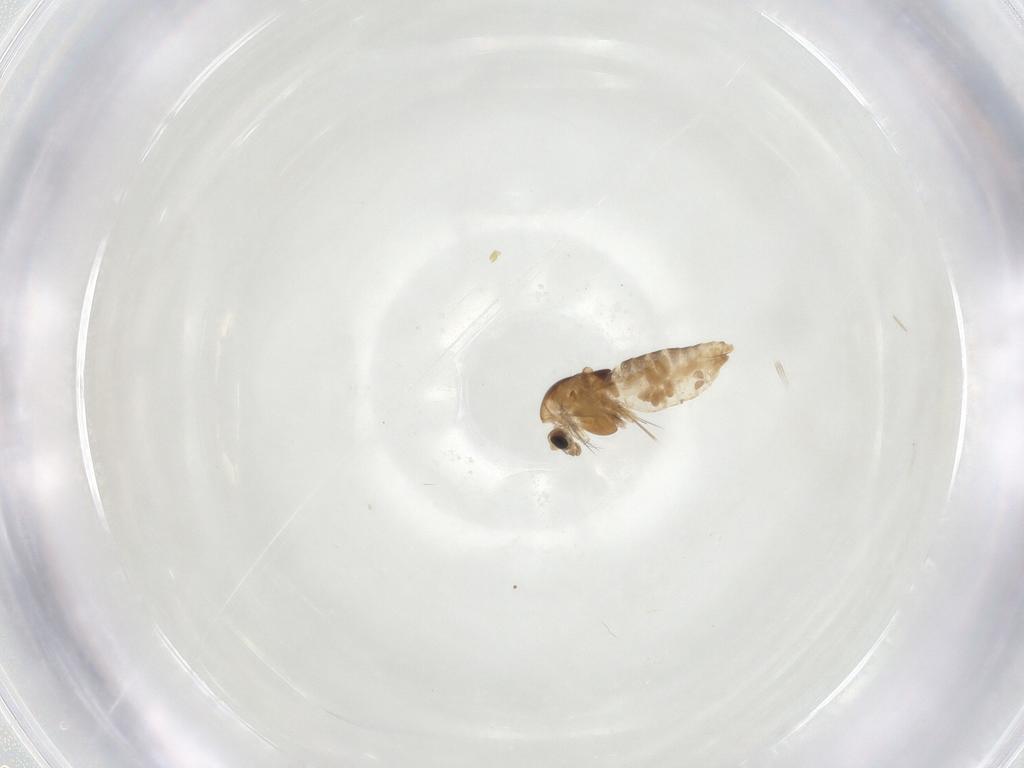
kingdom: Animalia
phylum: Arthropoda
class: Insecta
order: Diptera
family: Chironomidae
